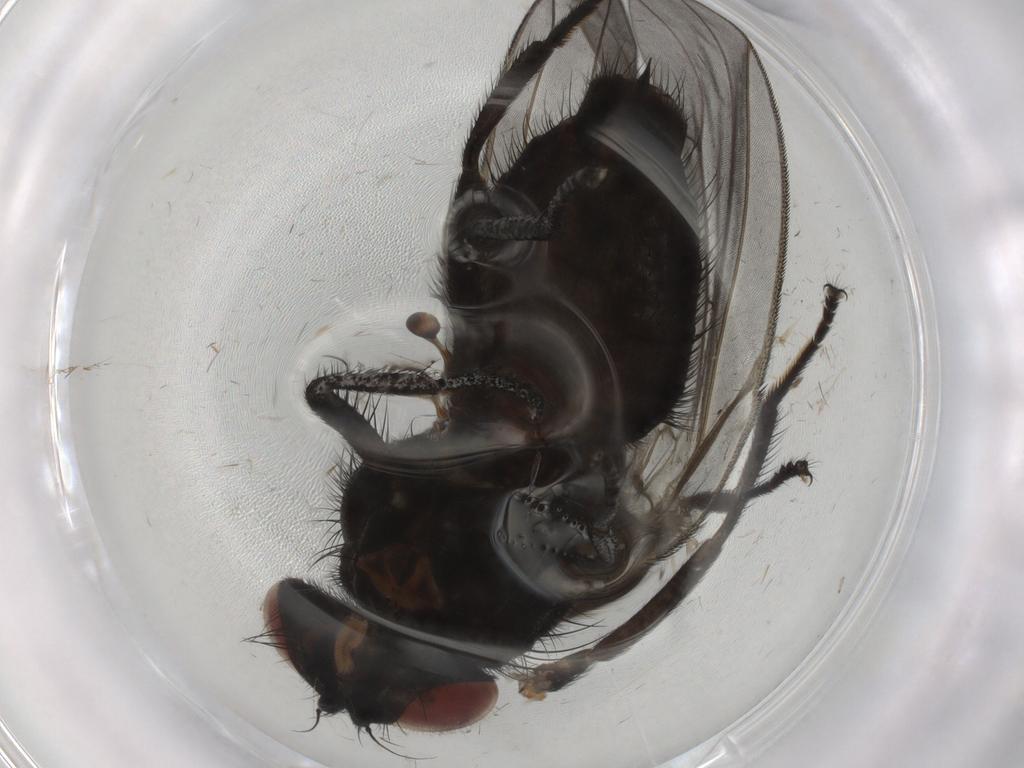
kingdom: Animalia
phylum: Arthropoda
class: Insecta
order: Diptera
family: Lonchaeidae
